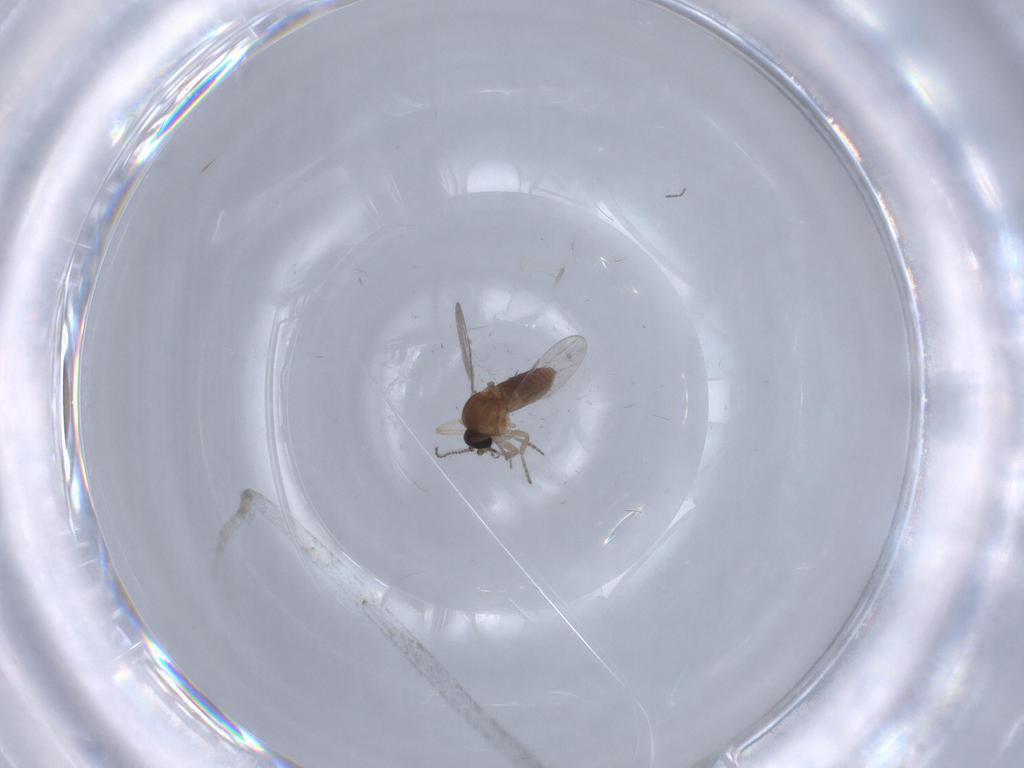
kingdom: Animalia
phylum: Arthropoda
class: Insecta
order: Diptera
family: Ceratopogonidae
